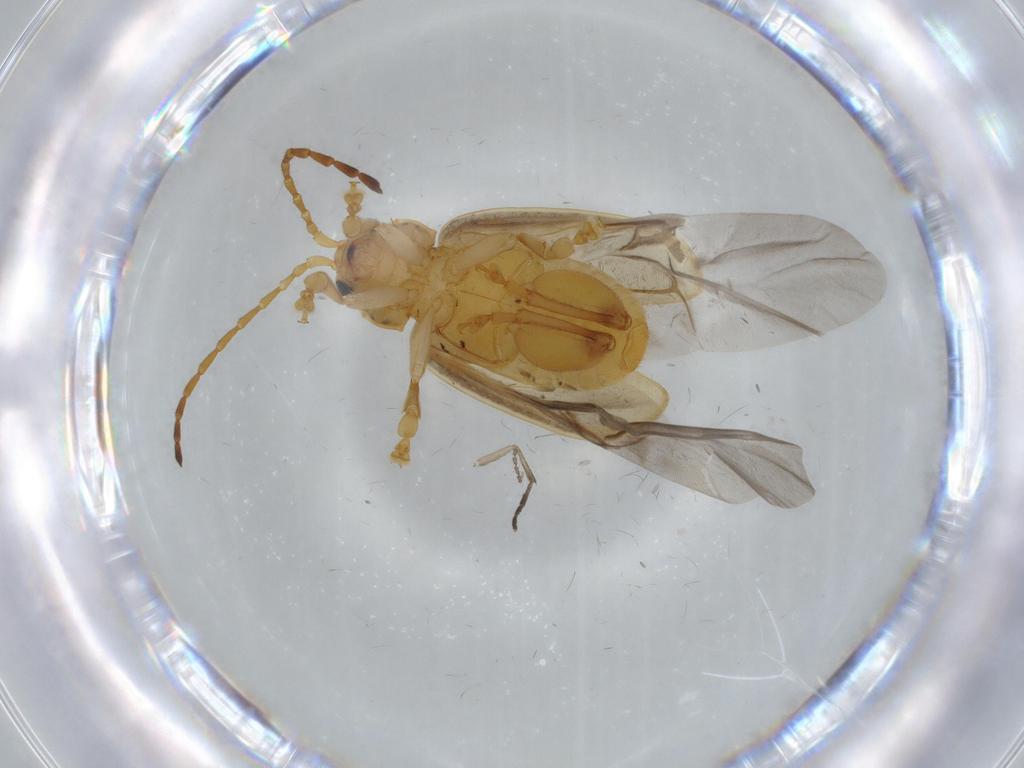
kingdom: Animalia
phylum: Arthropoda
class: Insecta
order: Coleoptera
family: Chrysomelidae
